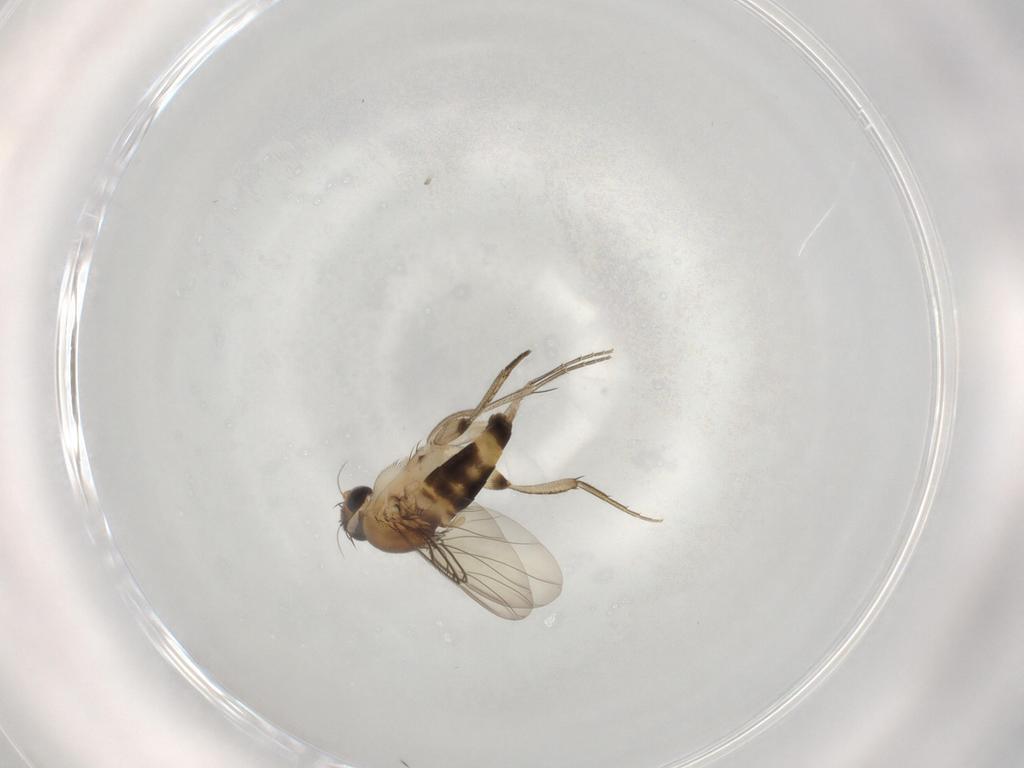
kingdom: Animalia
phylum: Arthropoda
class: Insecta
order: Diptera
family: Phoridae
